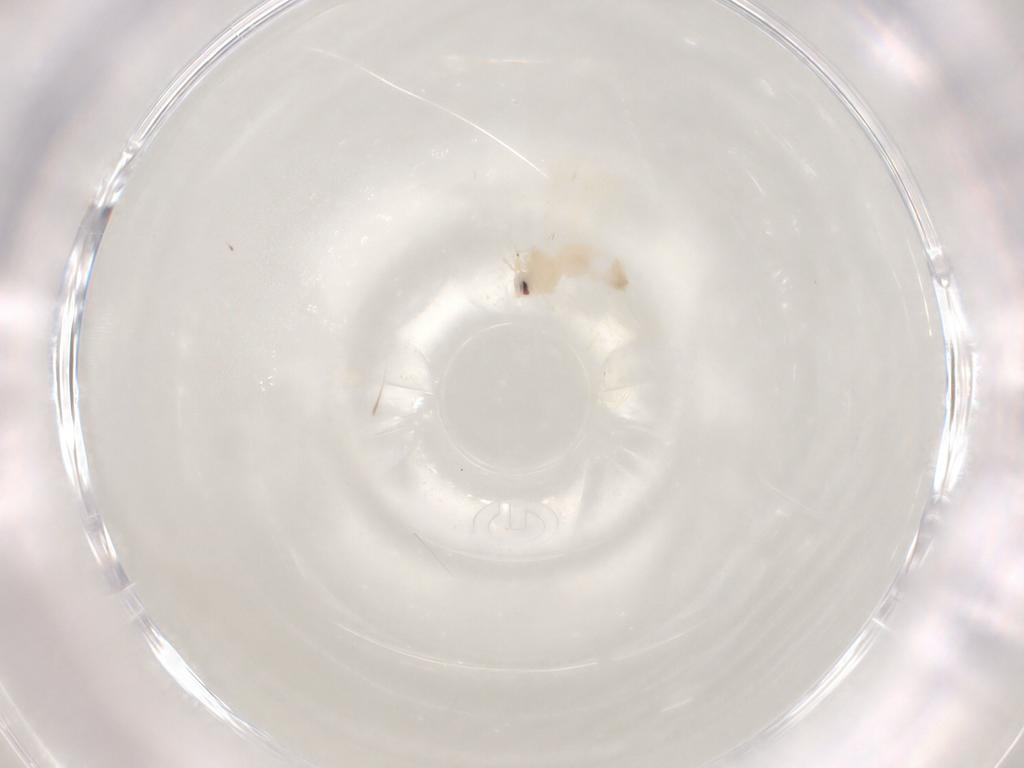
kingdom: Animalia
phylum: Arthropoda
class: Insecta
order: Hemiptera
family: Aleyrodidae
